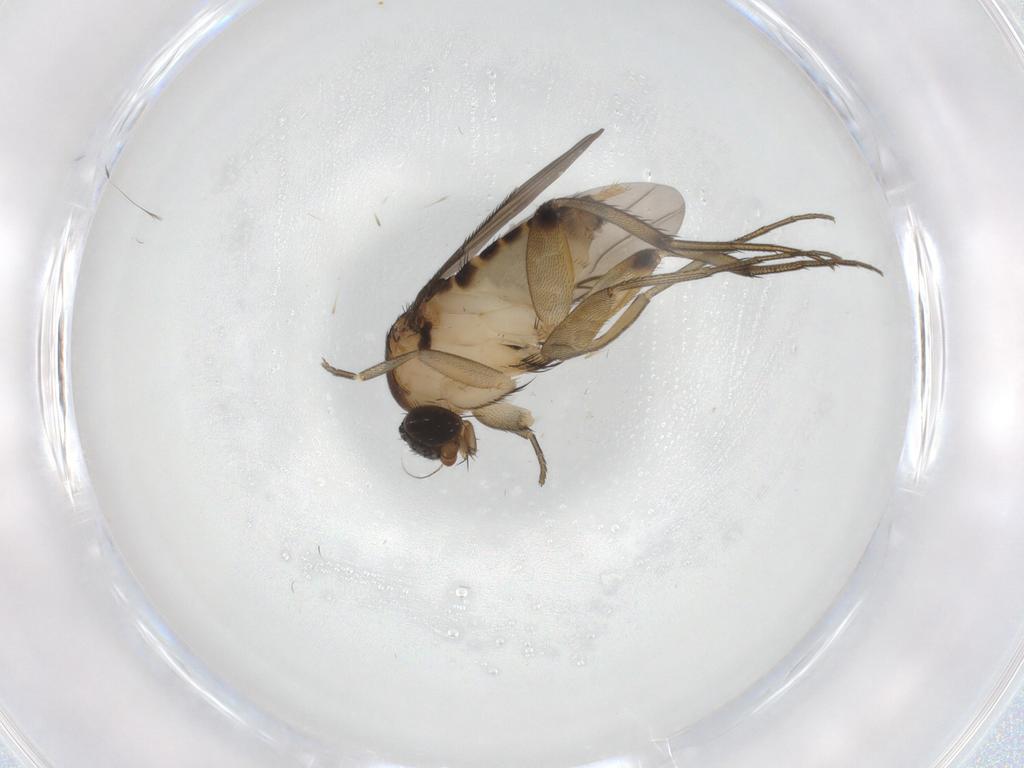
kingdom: Animalia
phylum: Arthropoda
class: Insecta
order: Diptera
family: Phoridae
